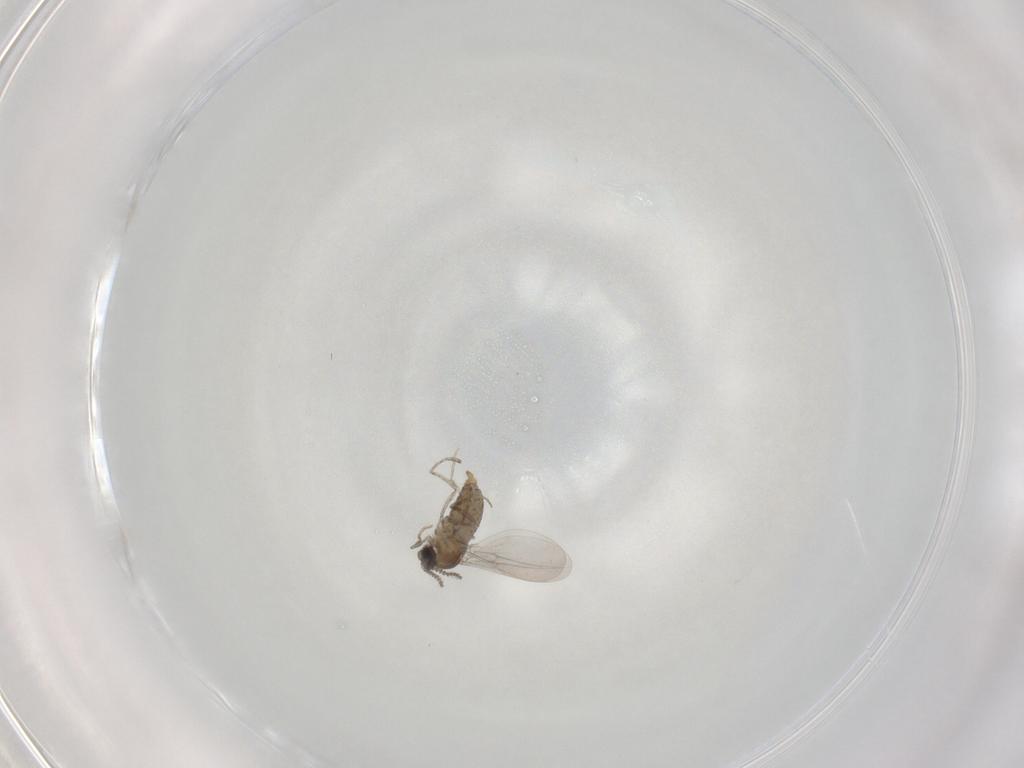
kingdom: Animalia
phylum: Arthropoda
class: Insecta
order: Diptera
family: Cecidomyiidae
